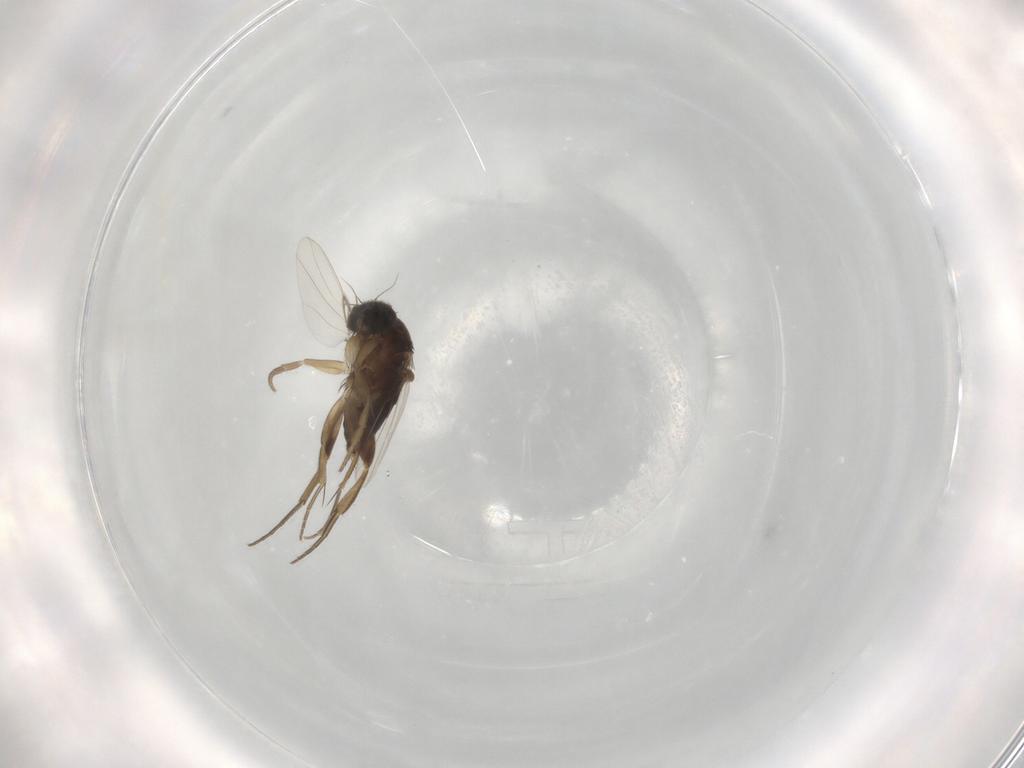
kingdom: Animalia
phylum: Arthropoda
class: Insecta
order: Diptera
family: Phoridae
